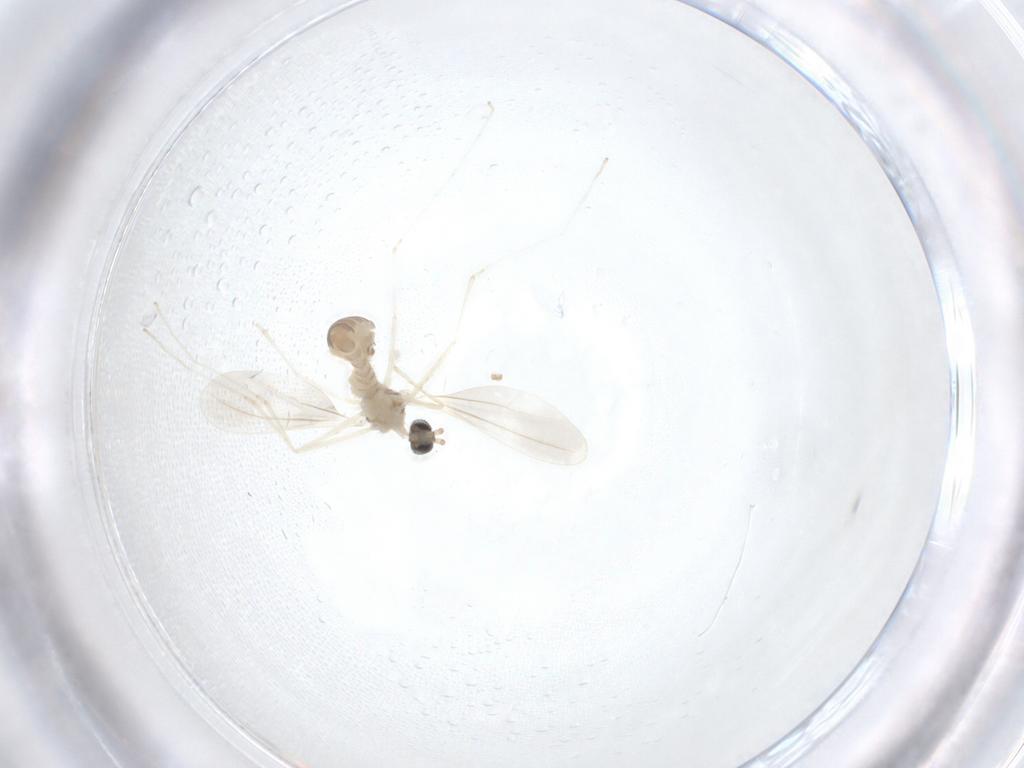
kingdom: Animalia
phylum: Arthropoda
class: Insecta
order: Diptera
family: Cecidomyiidae
